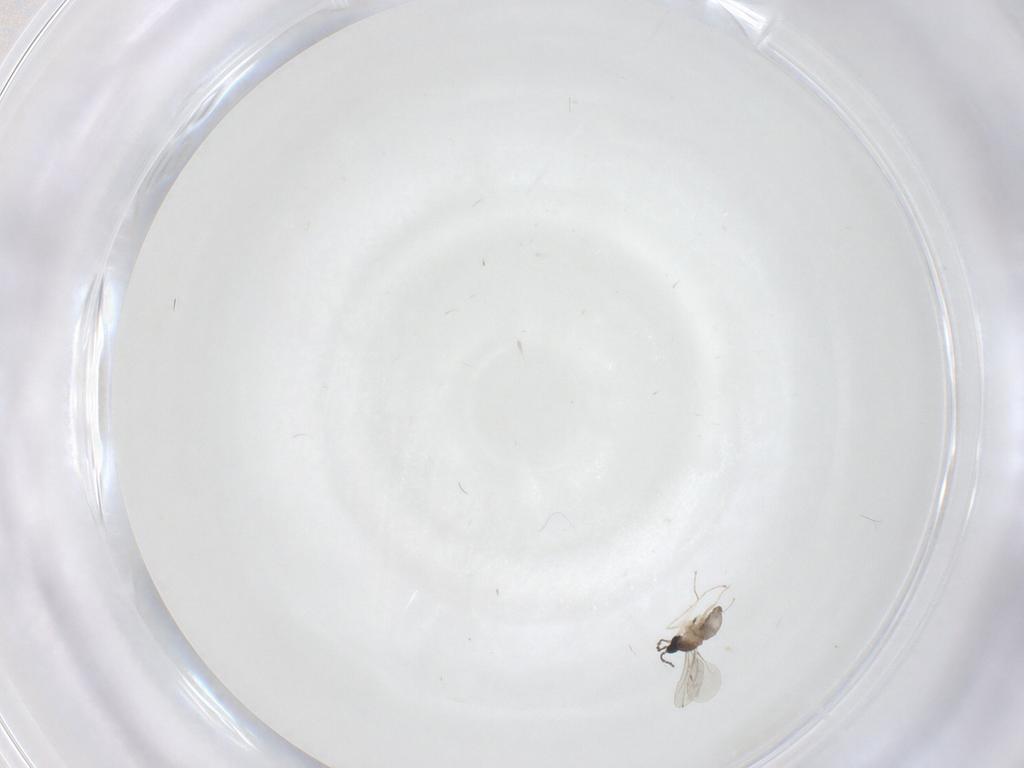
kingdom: Animalia
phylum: Arthropoda
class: Insecta
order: Diptera
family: Cecidomyiidae
